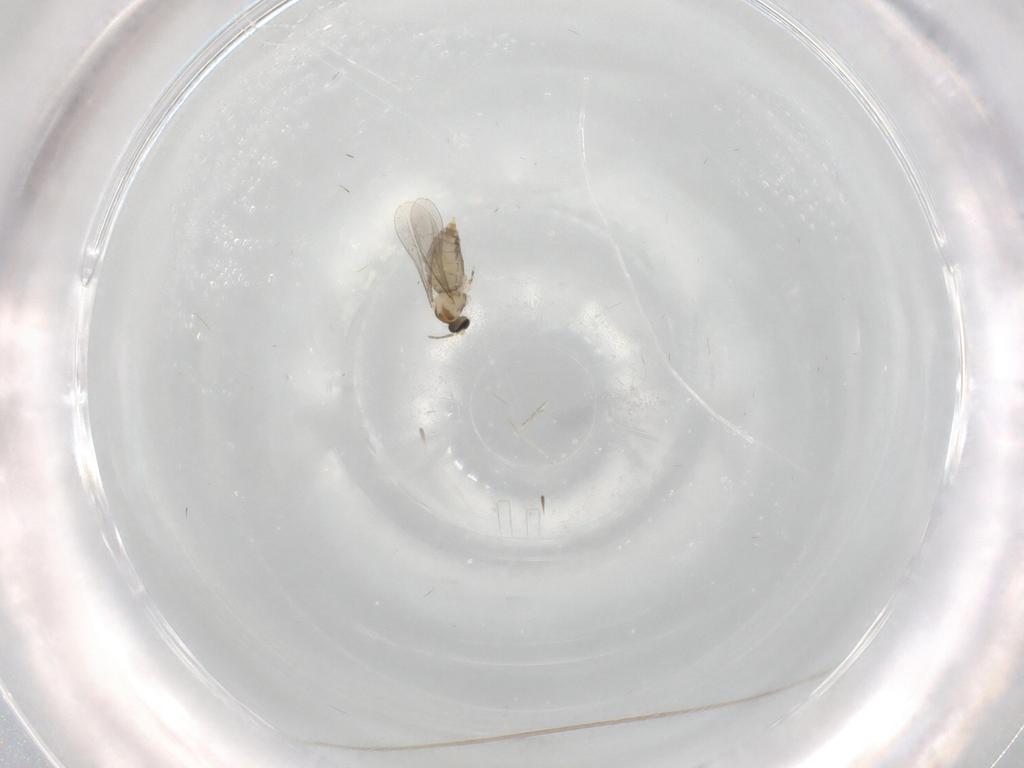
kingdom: Animalia
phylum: Arthropoda
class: Insecta
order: Diptera
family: Psychodidae
